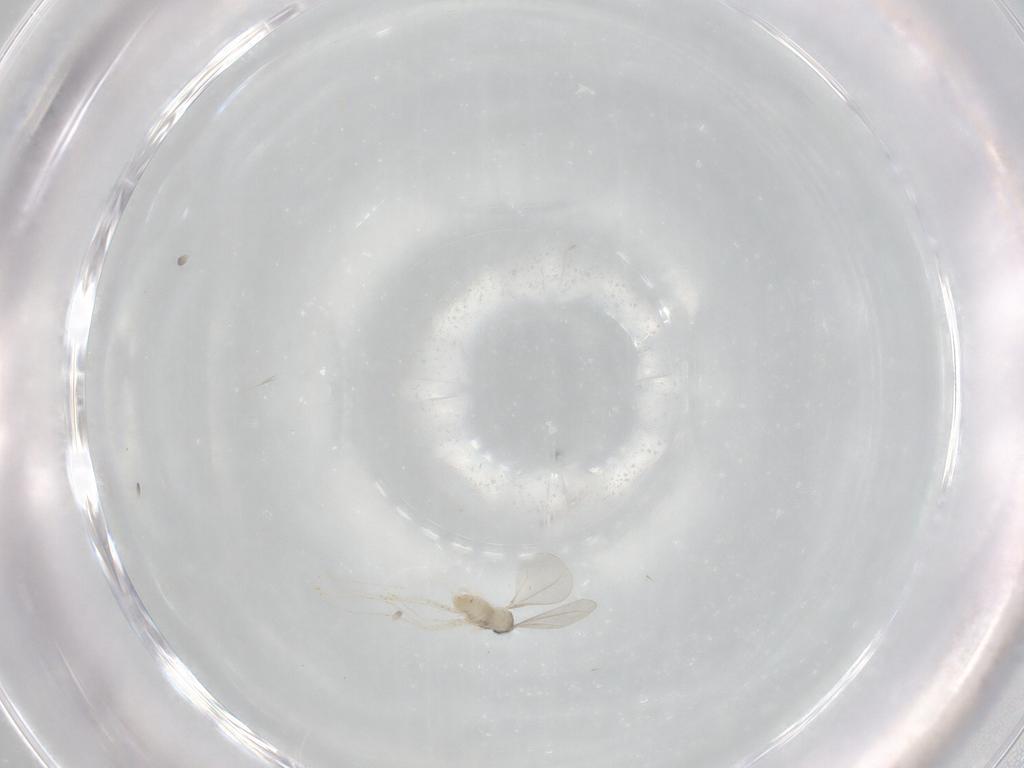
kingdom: Animalia
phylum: Arthropoda
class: Insecta
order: Diptera
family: Cecidomyiidae
